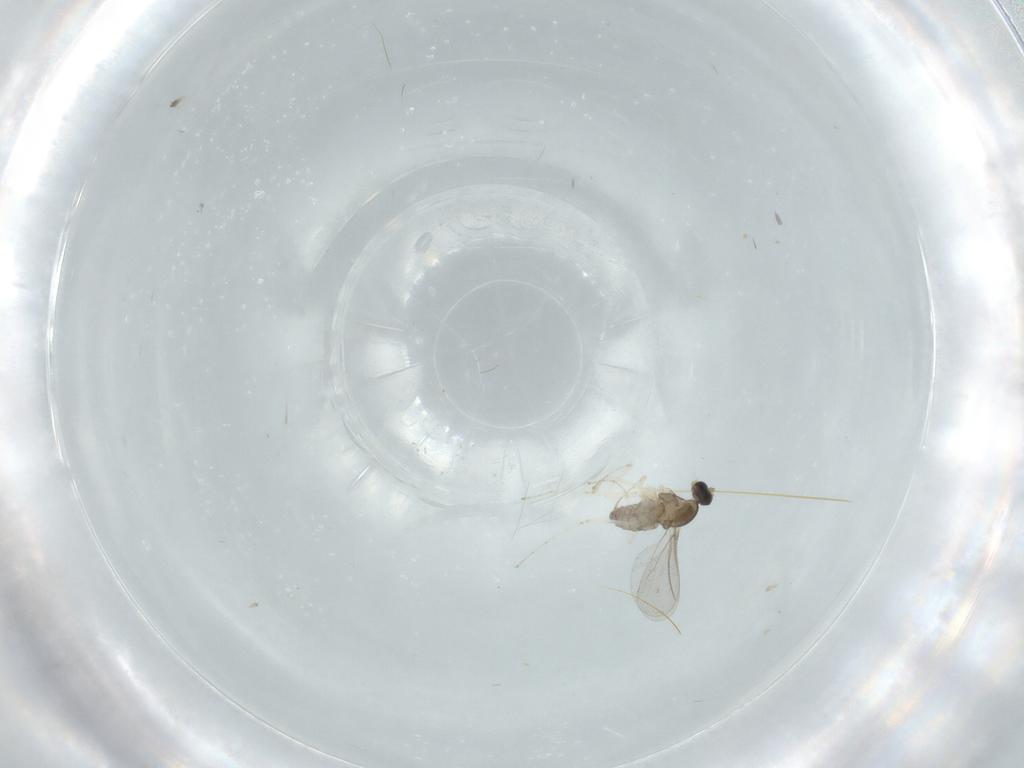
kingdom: Animalia
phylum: Arthropoda
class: Insecta
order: Diptera
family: Cecidomyiidae
